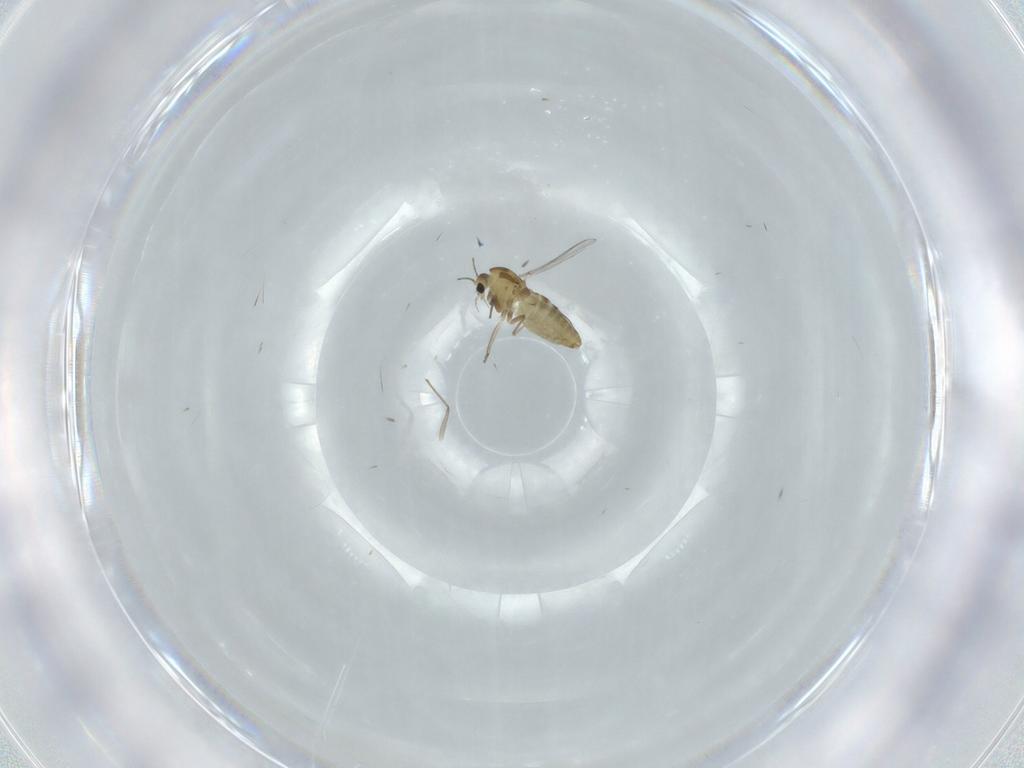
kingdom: Animalia
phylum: Arthropoda
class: Insecta
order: Diptera
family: Chironomidae
